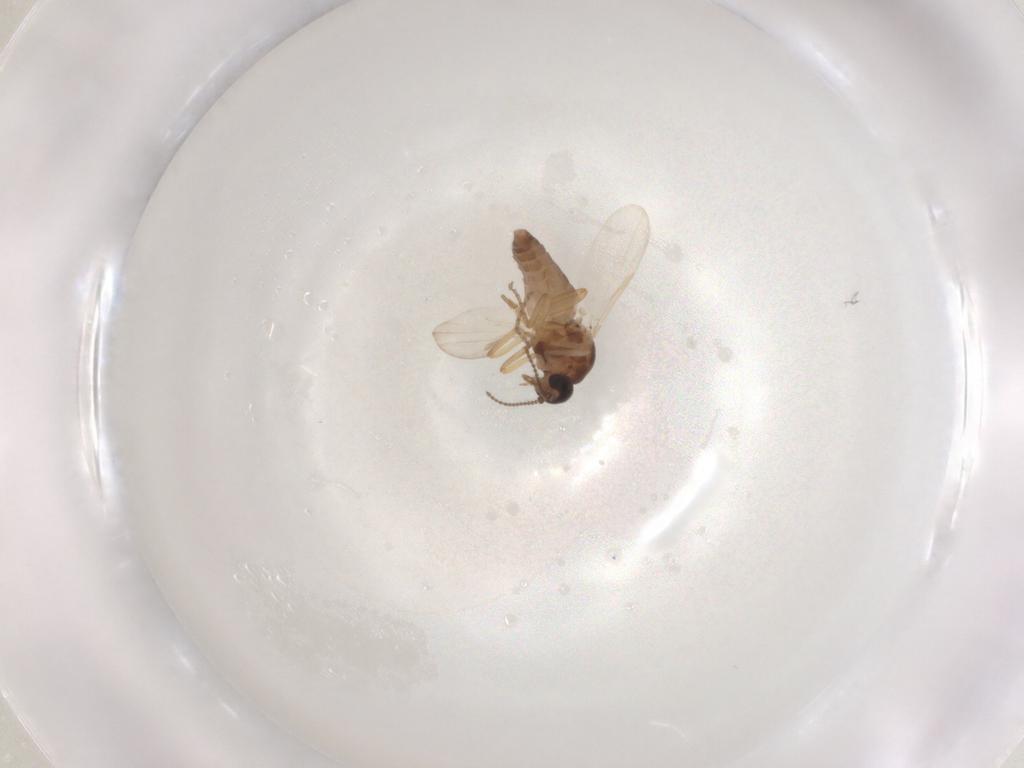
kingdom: Animalia
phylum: Arthropoda
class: Insecta
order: Diptera
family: Ceratopogonidae
